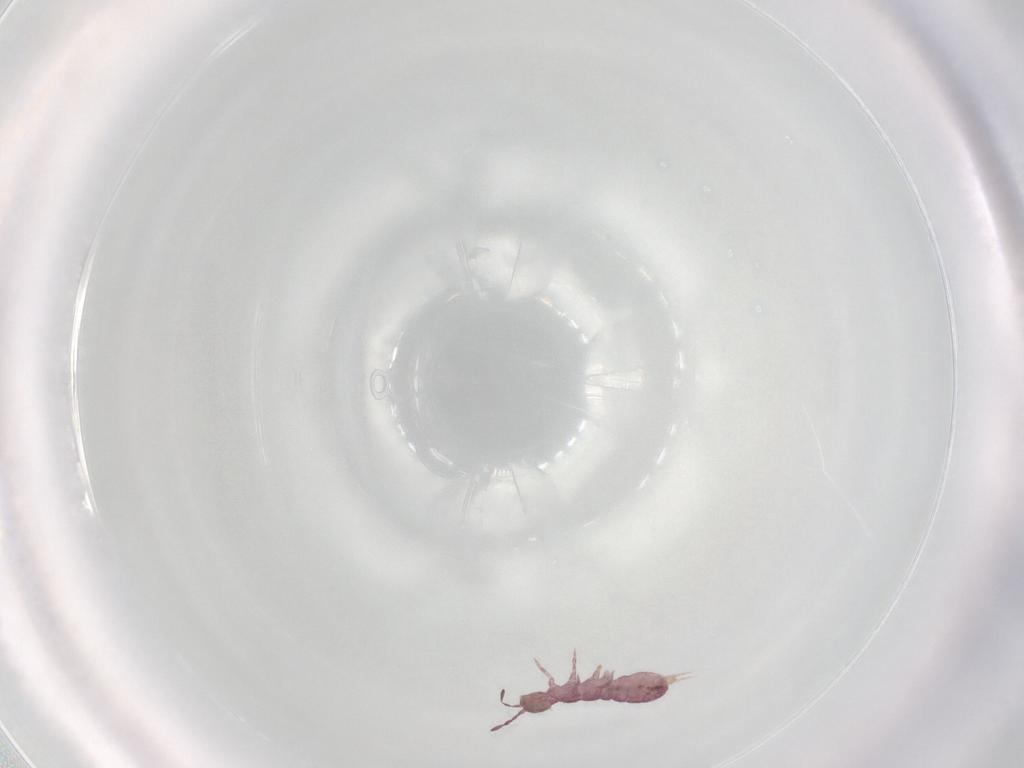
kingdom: Animalia
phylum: Arthropoda
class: Collembola
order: Entomobryomorpha
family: Isotomidae
